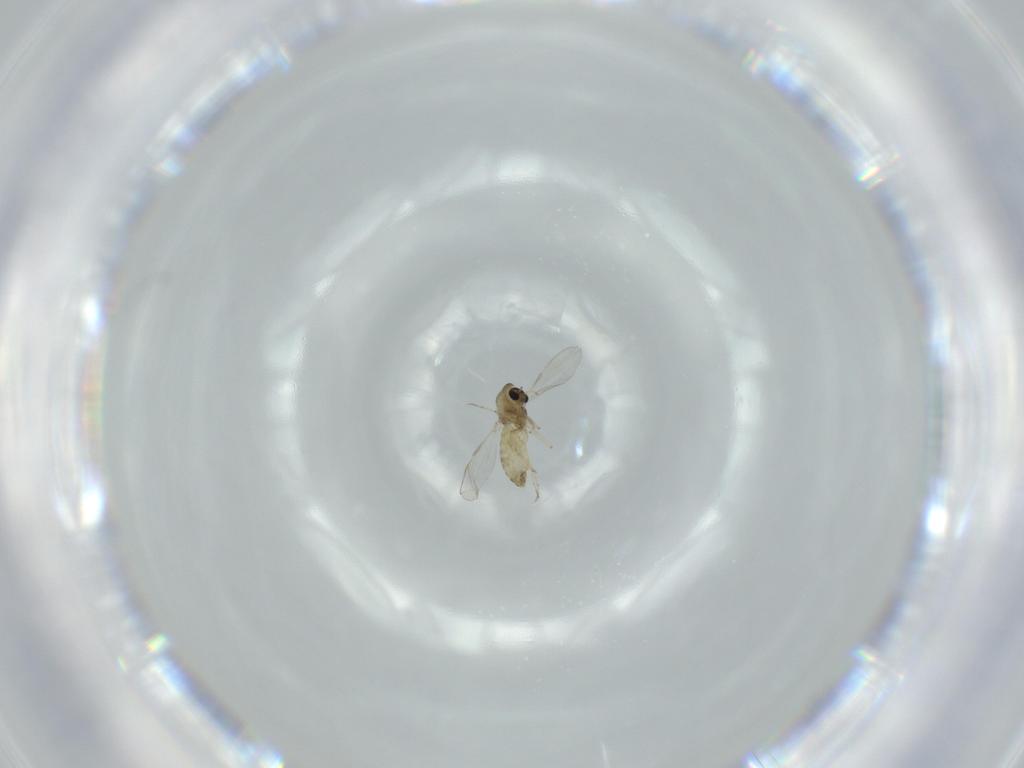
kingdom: Animalia
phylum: Arthropoda
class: Insecta
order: Diptera
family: Chironomidae
